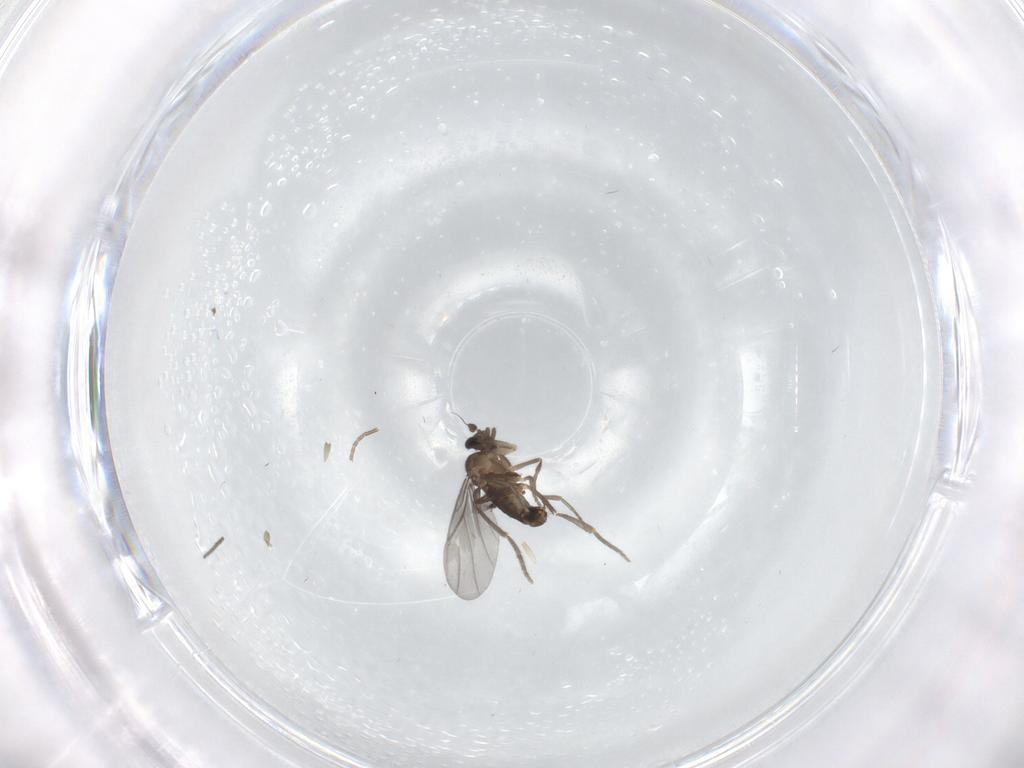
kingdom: Animalia
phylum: Arthropoda
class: Insecta
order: Diptera
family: Phoridae
